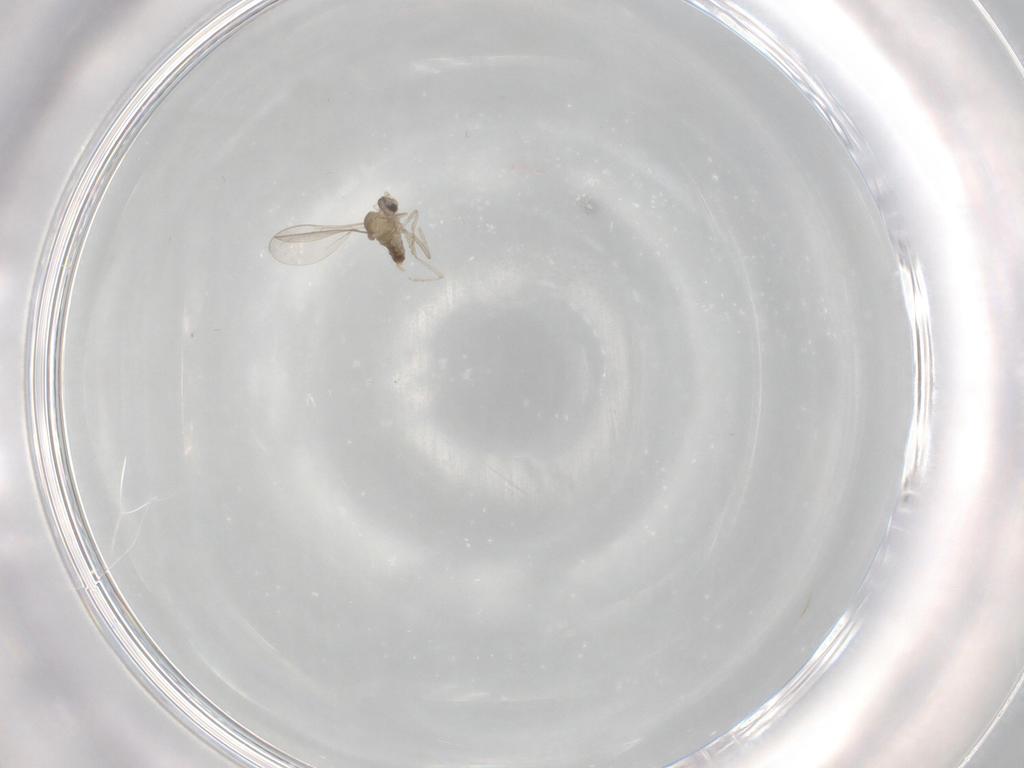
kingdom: Animalia
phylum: Arthropoda
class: Insecta
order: Diptera
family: Cecidomyiidae
